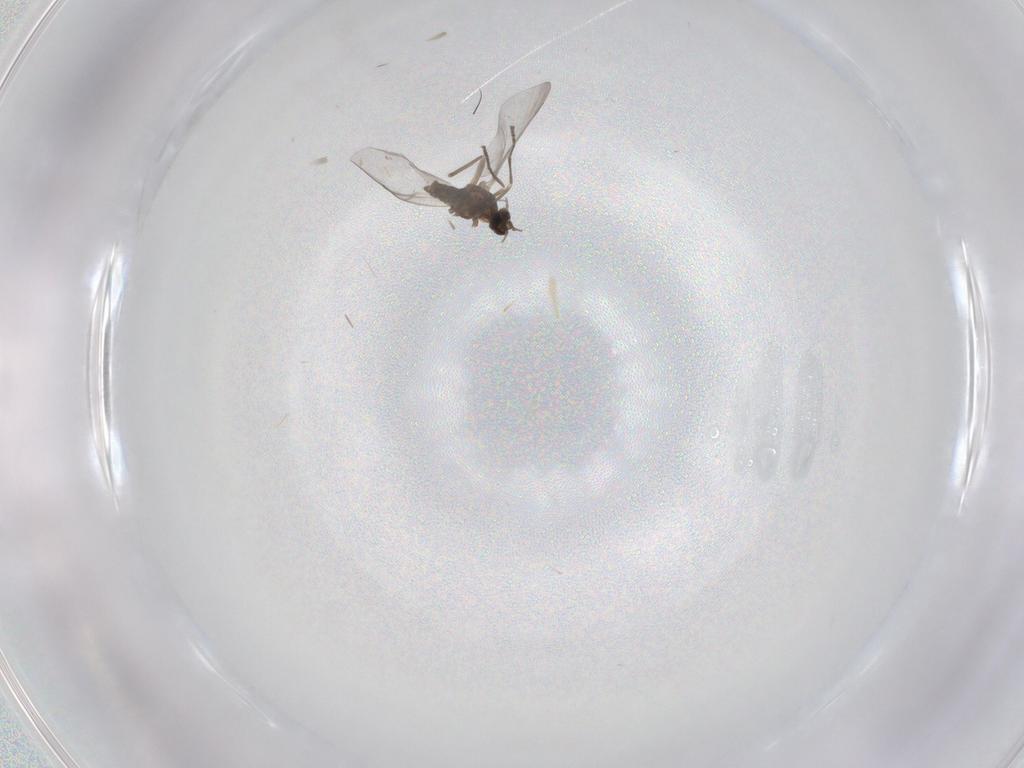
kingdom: Animalia
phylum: Arthropoda
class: Insecta
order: Diptera
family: Cecidomyiidae
